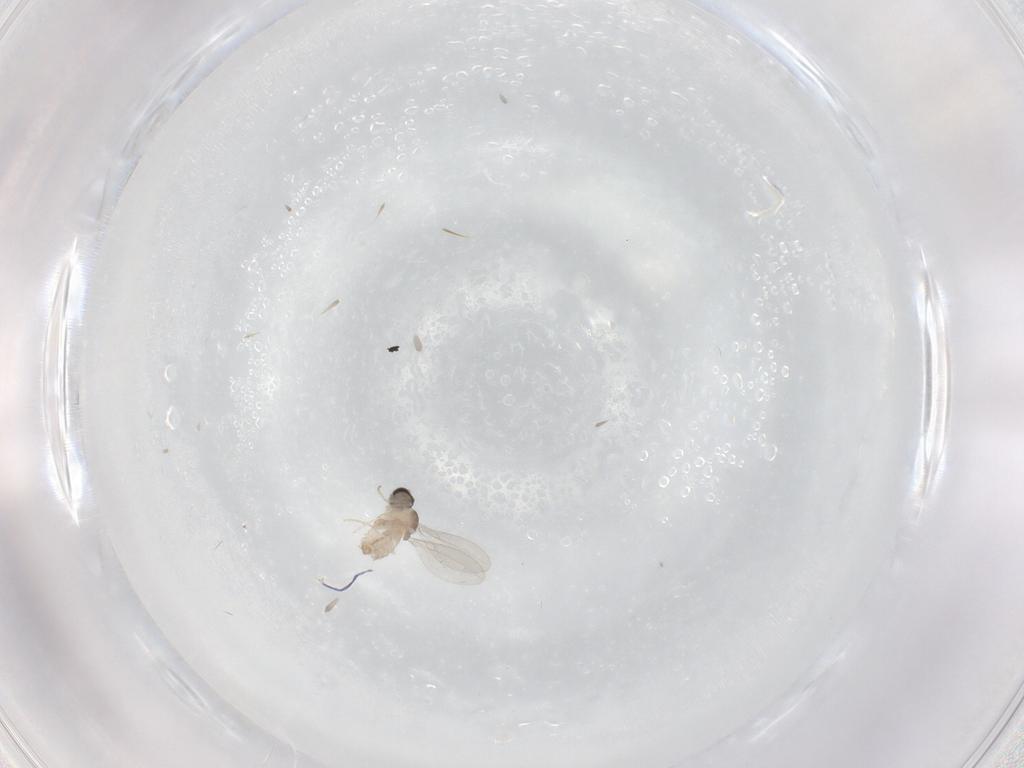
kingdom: Animalia
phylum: Arthropoda
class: Insecta
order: Diptera
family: Cecidomyiidae
